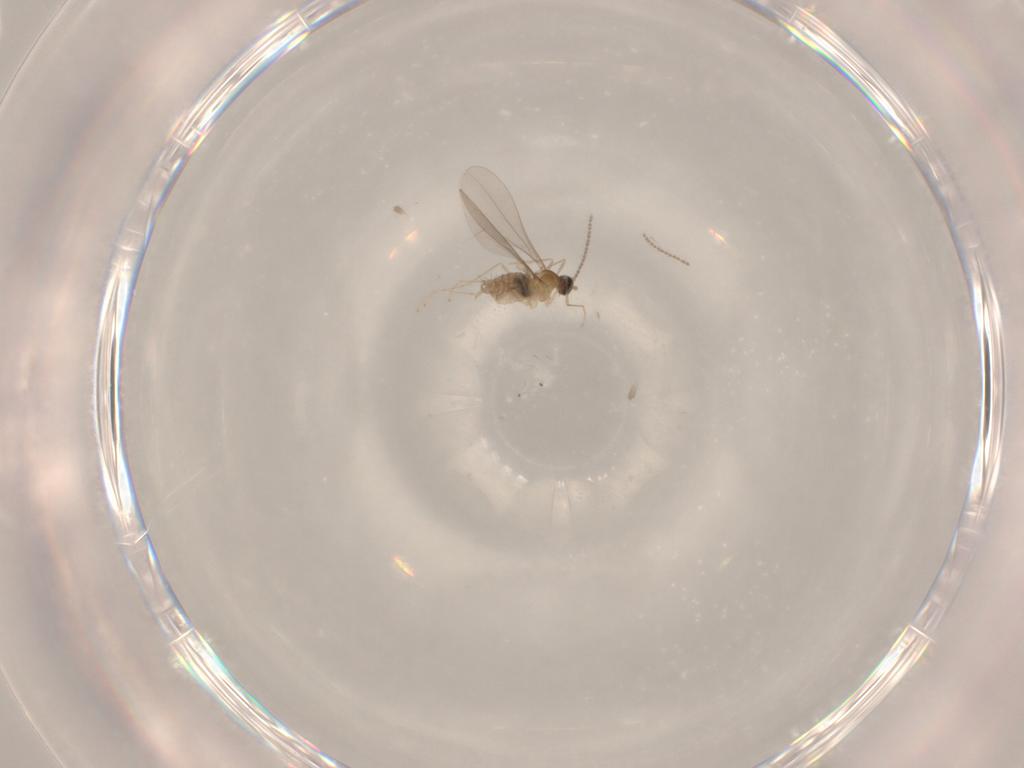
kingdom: Animalia
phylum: Arthropoda
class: Insecta
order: Diptera
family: Cecidomyiidae
